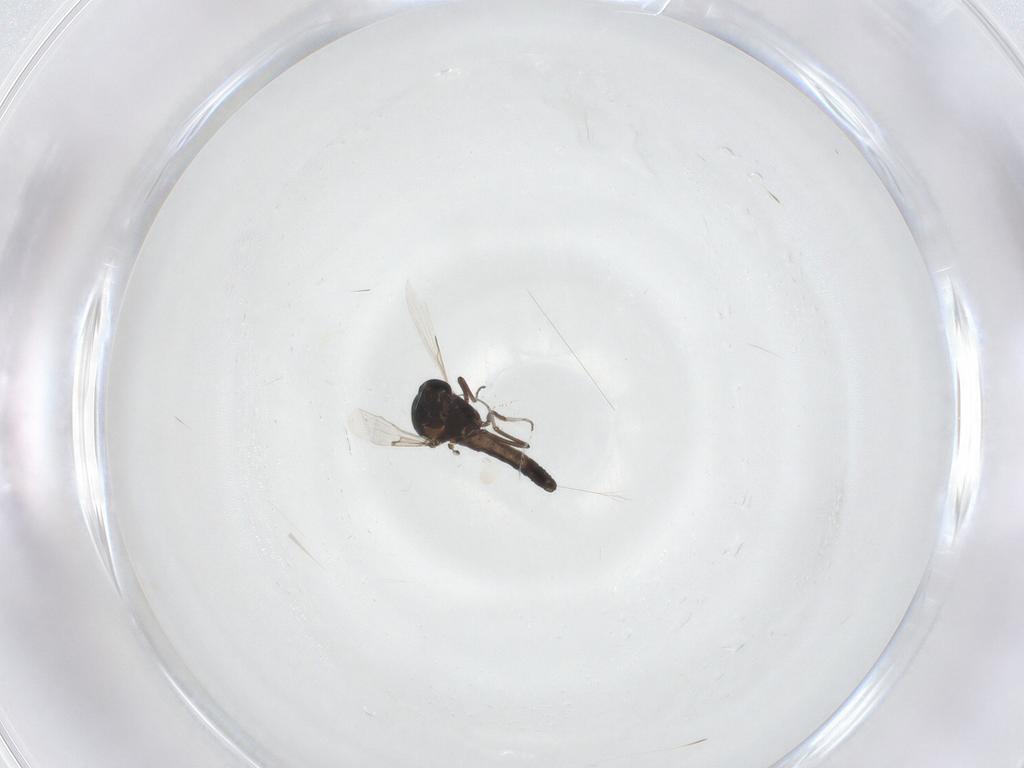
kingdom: Animalia
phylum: Arthropoda
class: Insecta
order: Diptera
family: Ceratopogonidae
